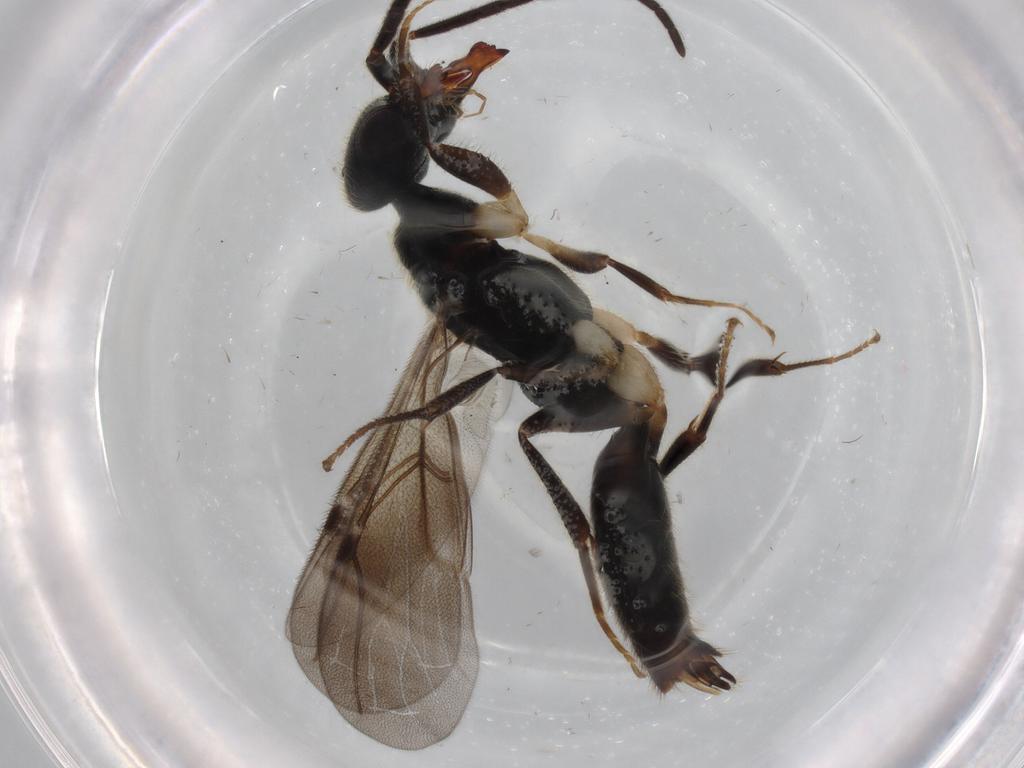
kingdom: Animalia
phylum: Arthropoda
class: Insecta
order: Hymenoptera
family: Bethylidae
